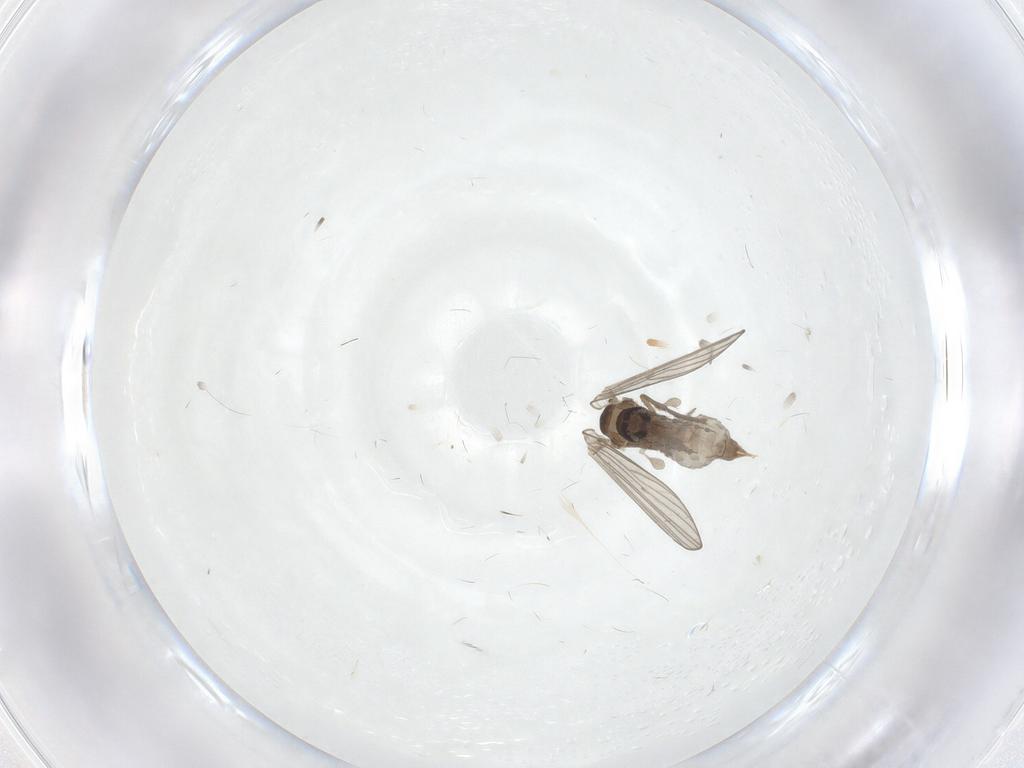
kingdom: Animalia
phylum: Arthropoda
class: Insecta
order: Diptera
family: Psychodidae
